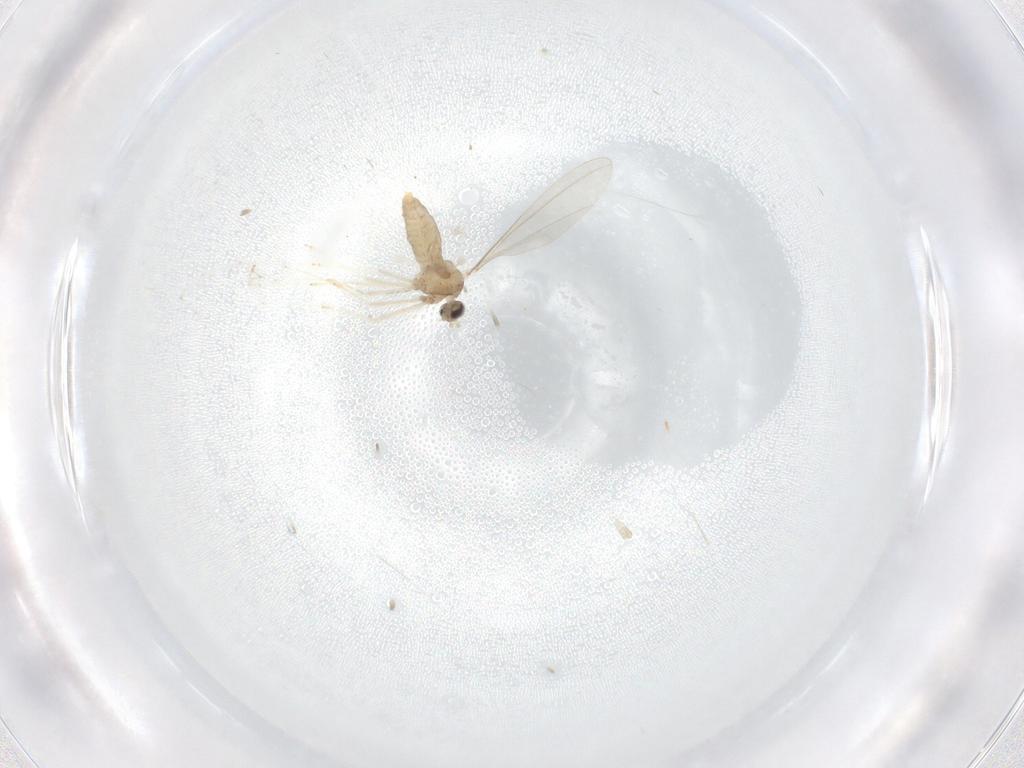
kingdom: Animalia
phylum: Arthropoda
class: Insecta
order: Diptera
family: Cecidomyiidae
